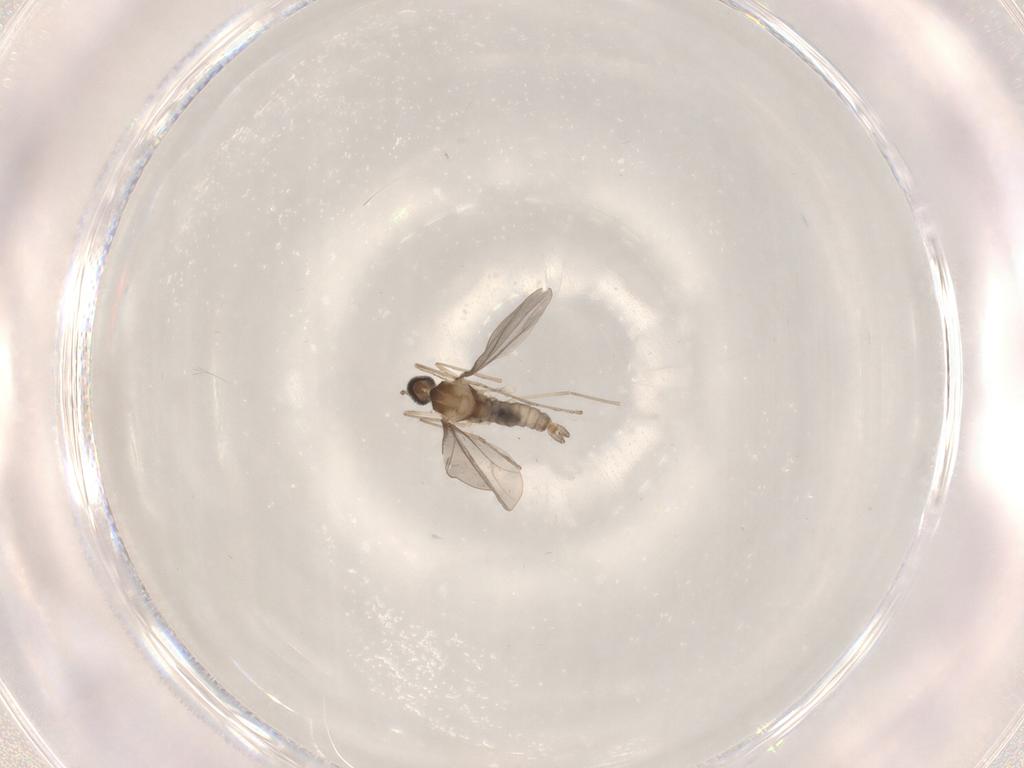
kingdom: Animalia
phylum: Arthropoda
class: Insecta
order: Diptera
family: Cecidomyiidae
